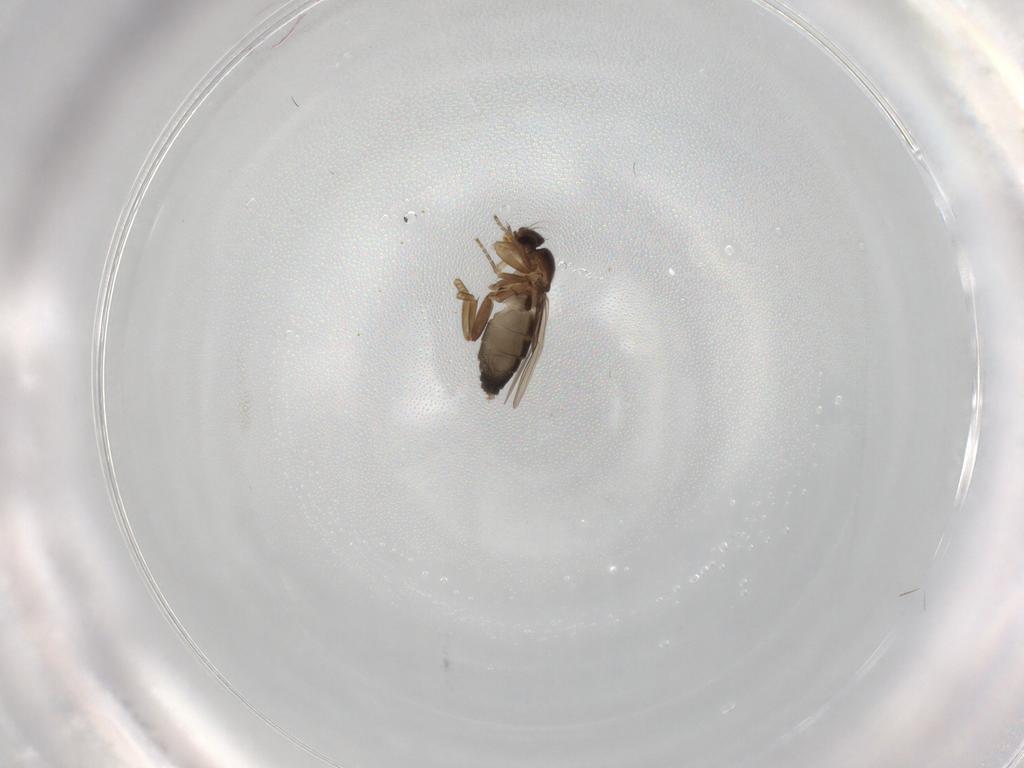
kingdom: Animalia
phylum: Arthropoda
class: Insecta
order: Diptera
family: Phoridae
